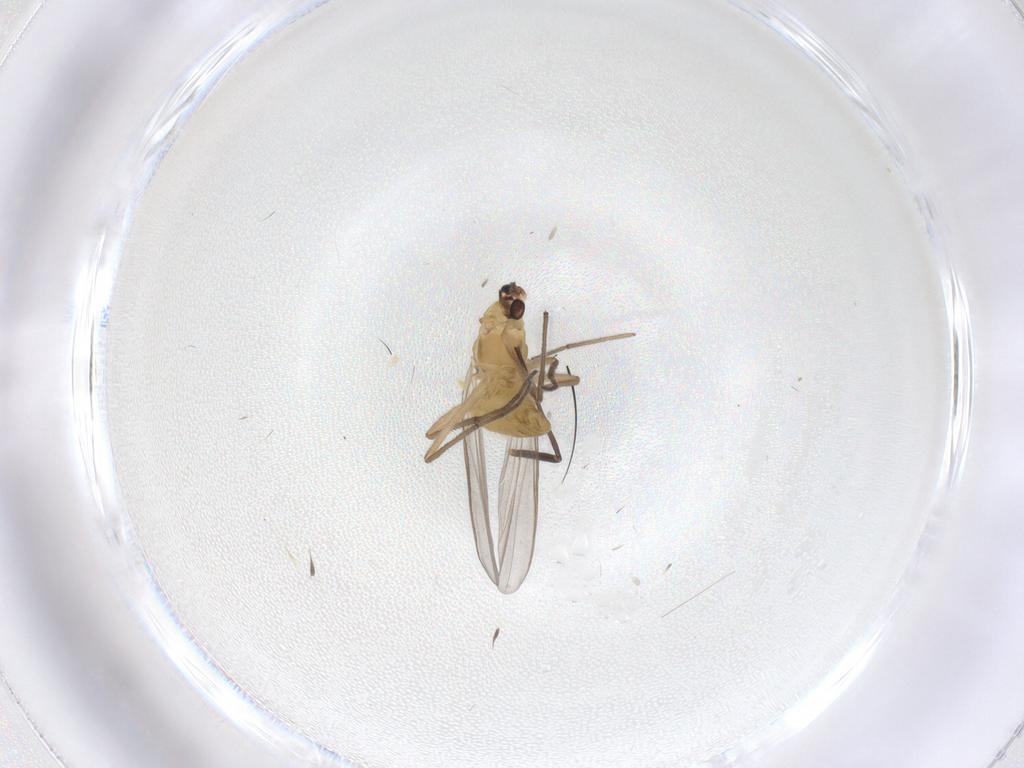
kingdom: Animalia
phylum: Arthropoda
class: Insecta
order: Diptera
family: Chironomidae
